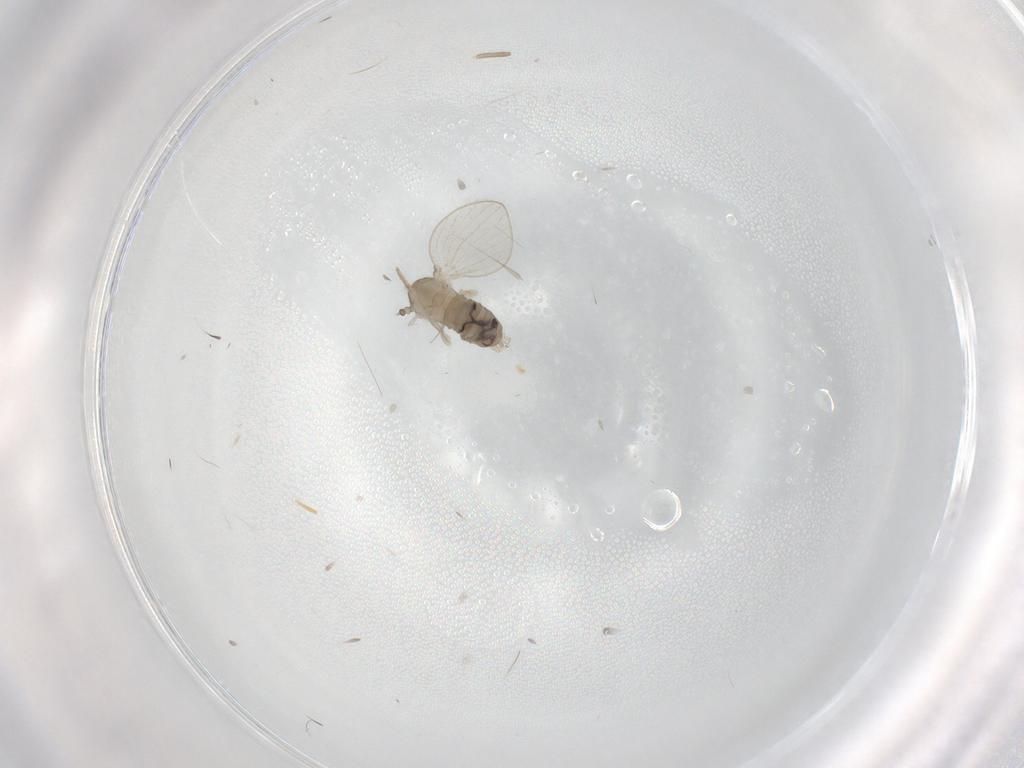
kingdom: Animalia
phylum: Arthropoda
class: Insecta
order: Diptera
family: Psychodidae
